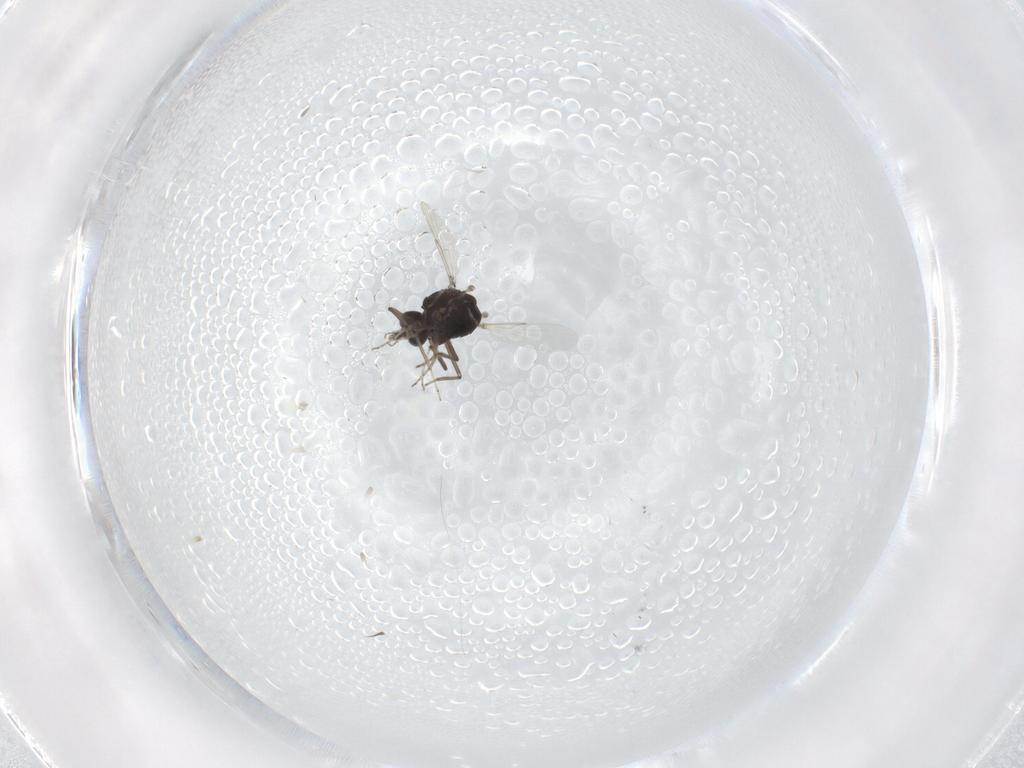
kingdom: Animalia
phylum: Arthropoda
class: Insecta
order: Diptera
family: Ceratopogonidae
